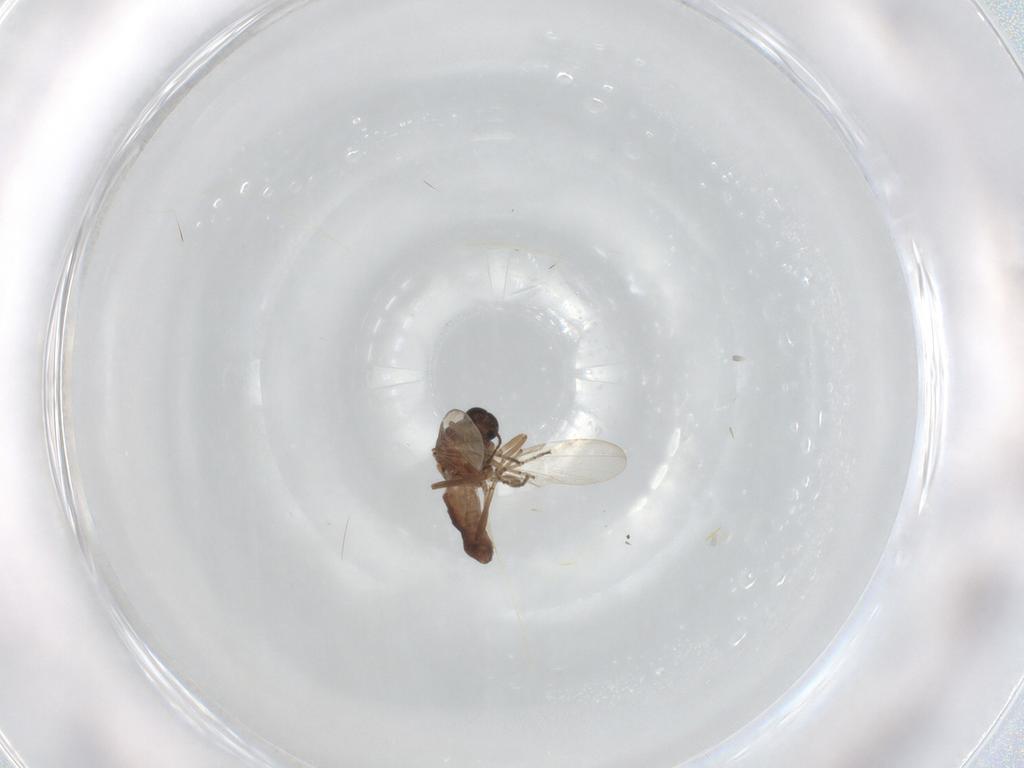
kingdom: Animalia
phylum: Arthropoda
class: Insecta
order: Diptera
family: Ceratopogonidae
